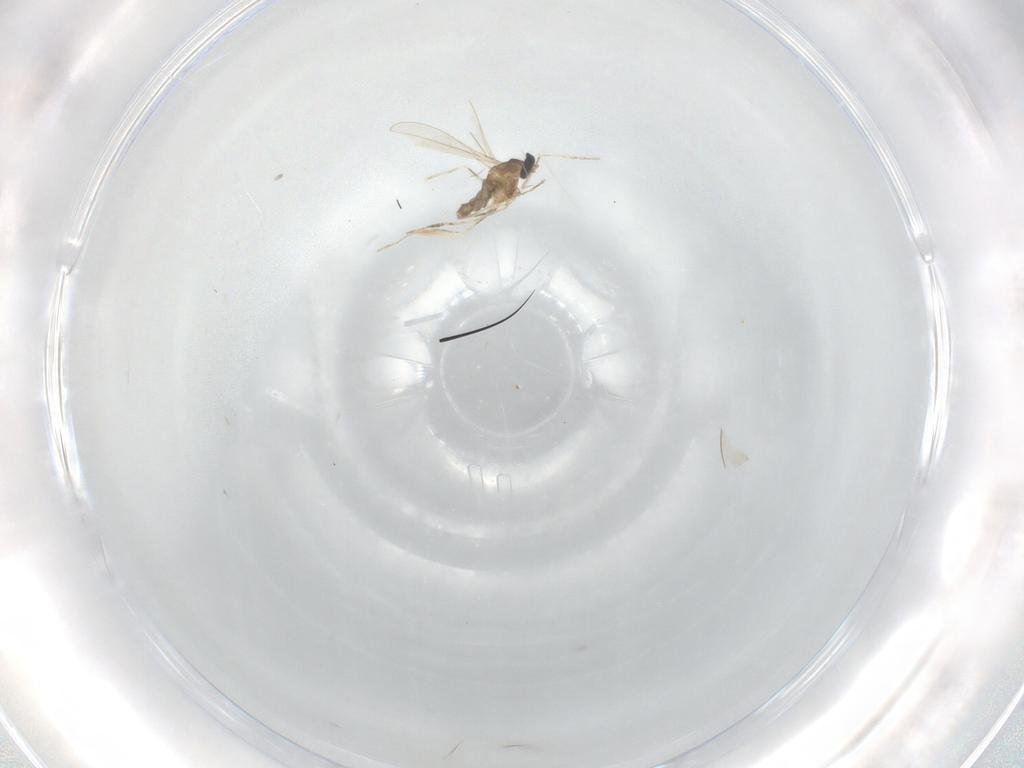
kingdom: Animalia
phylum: Arthropoda
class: Insecta
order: Diptera
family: Cecidomyiidae
